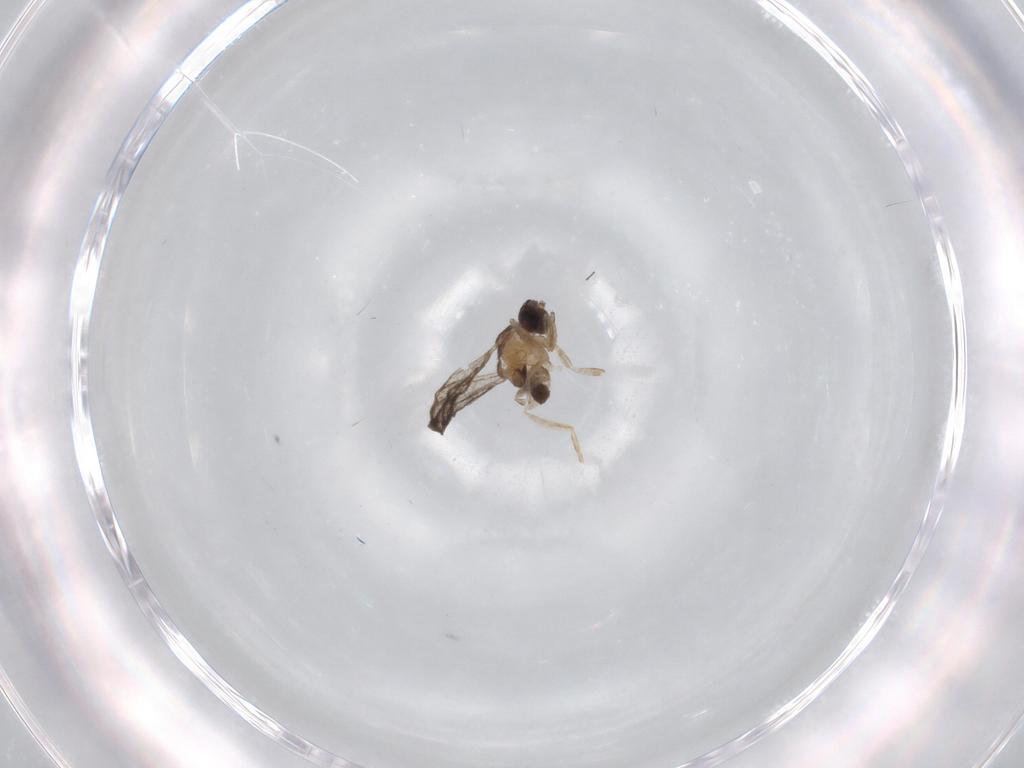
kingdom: Animalia
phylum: Arthropoda
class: Insecta
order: Diptera
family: Cecidomyiidae
